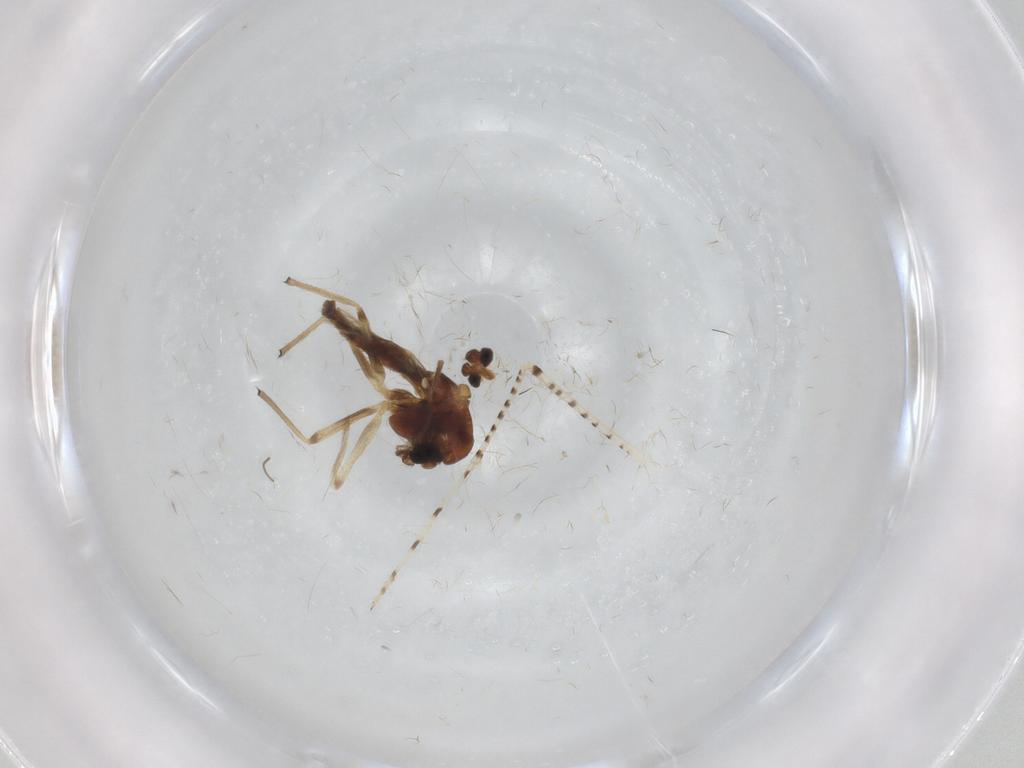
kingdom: Animalia
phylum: Arthropoda
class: Insecta
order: Diptera
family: Chironomidae
